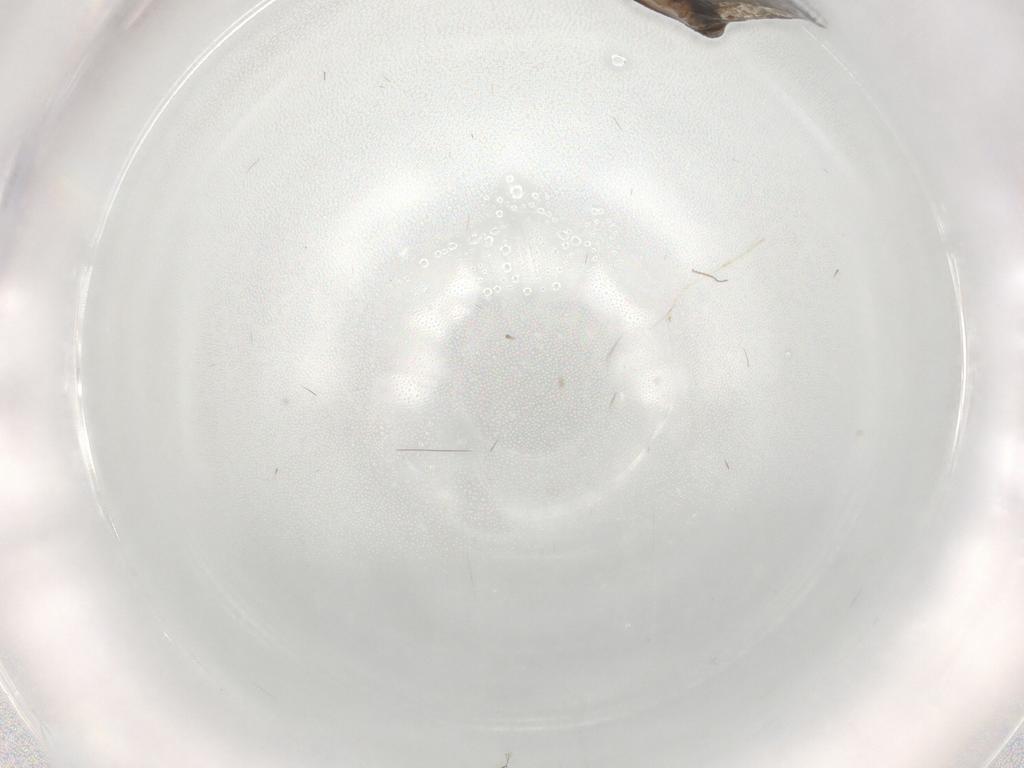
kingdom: Animalia
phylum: Arthropoda
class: Insecta
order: Lepidoptera
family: Tineidae
